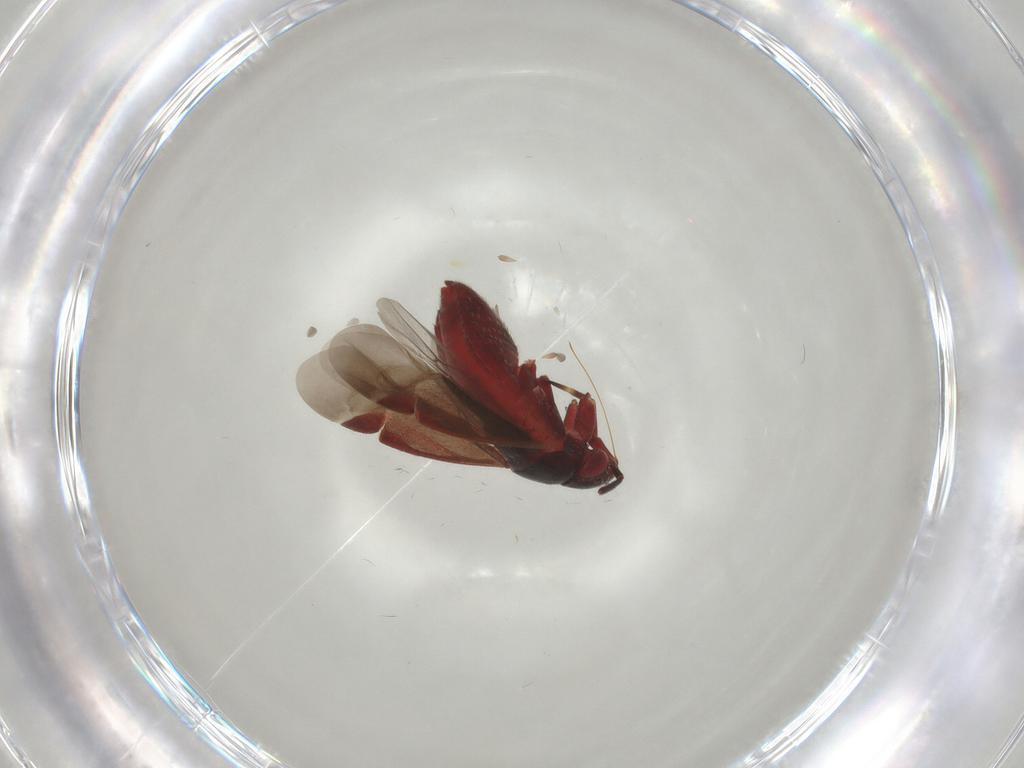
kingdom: Animalia
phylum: Arthropoda
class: Insecta
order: Hemiptera
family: Miridae
